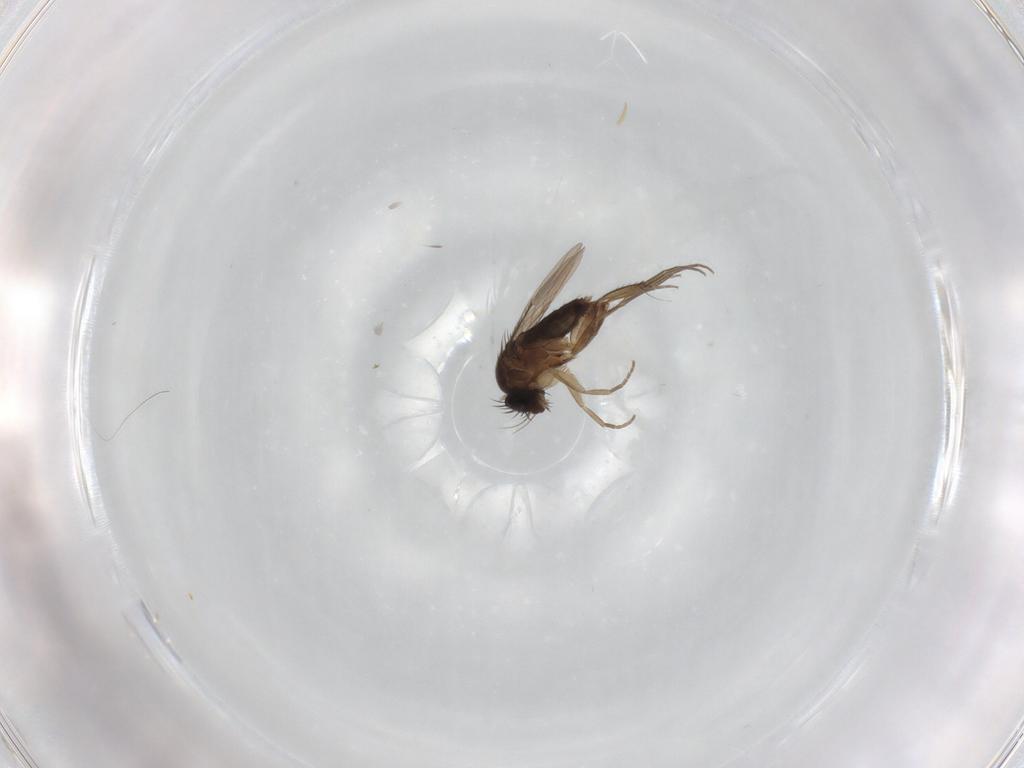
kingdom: Animalia
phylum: Arthropoda
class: Insecta
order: Diptera
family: Phoridae
